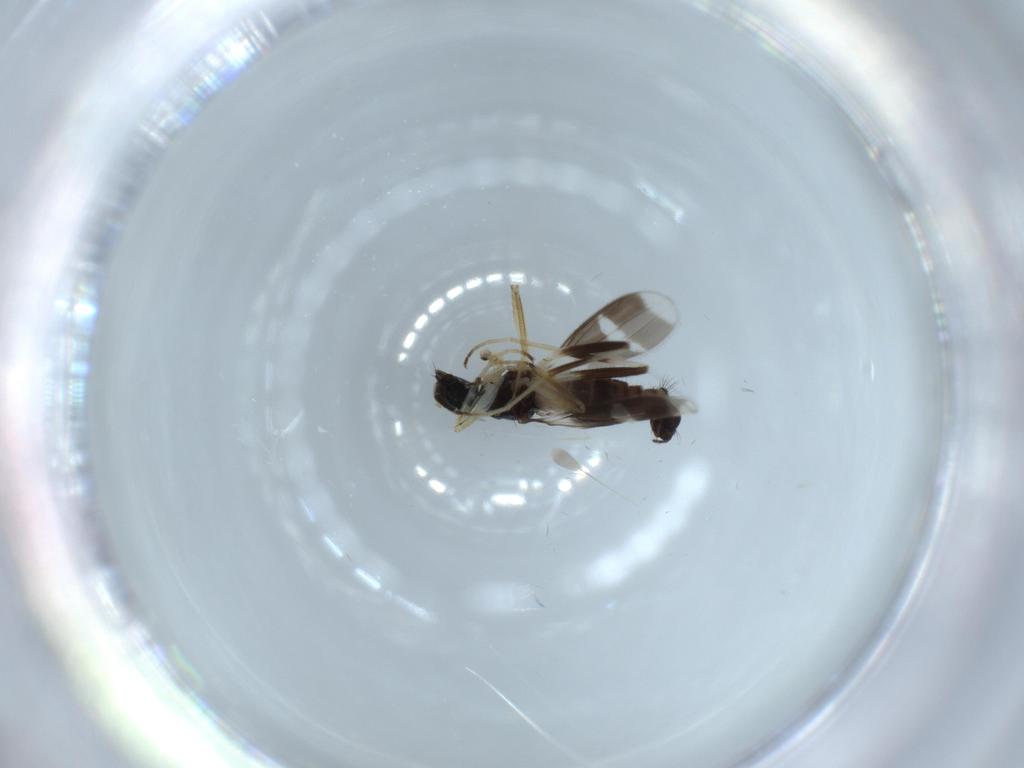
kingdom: Animalia
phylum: Arthropoda
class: Insecta
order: Diptera
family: Hybotidae
